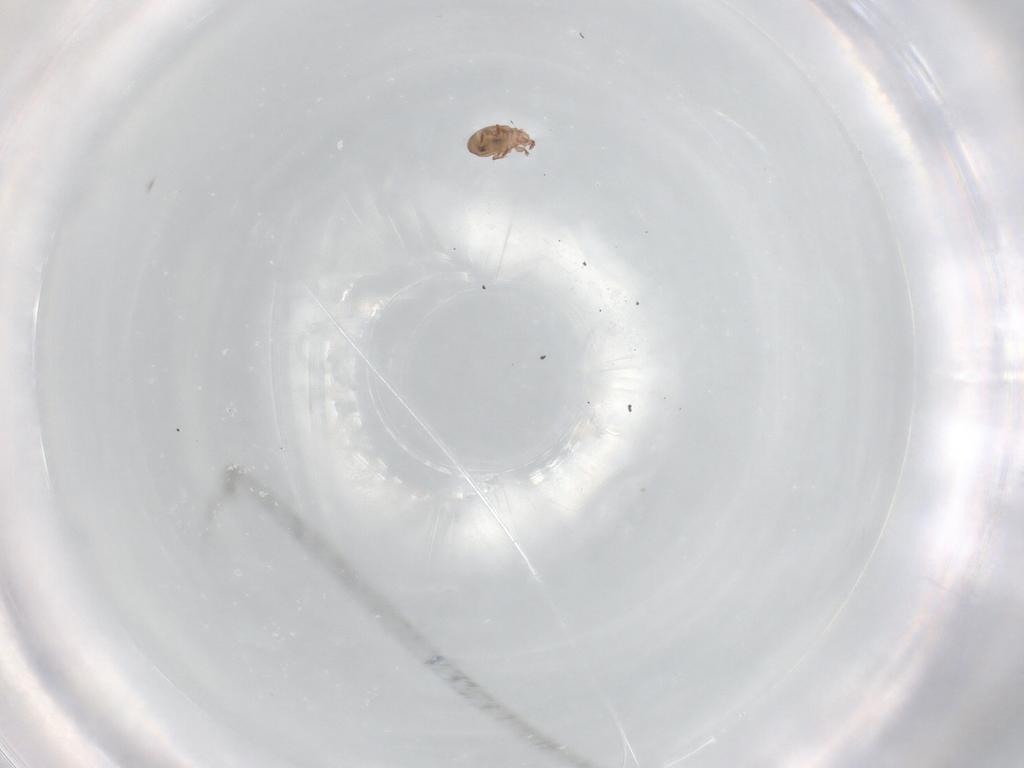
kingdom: Animalia
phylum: Arthropoda
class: Arachnida
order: Sarcoptiformes
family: Eremaeidae
